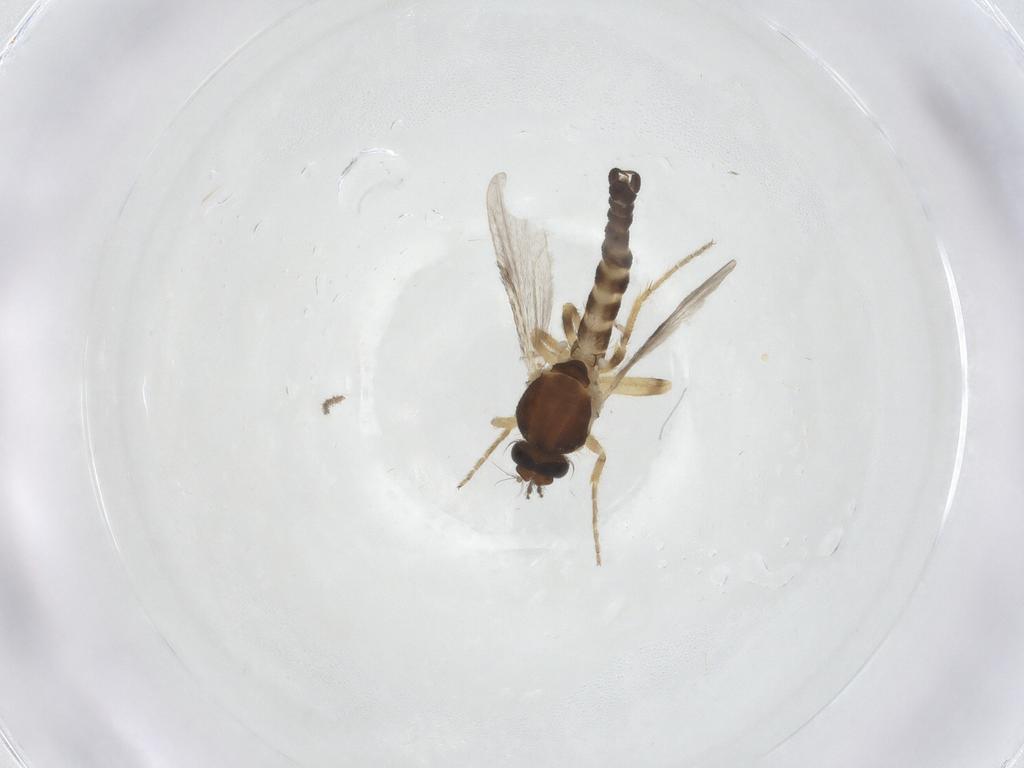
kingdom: Animalia
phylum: Arthropoda
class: Insecta
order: Diptera
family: Ceratopogonidae
